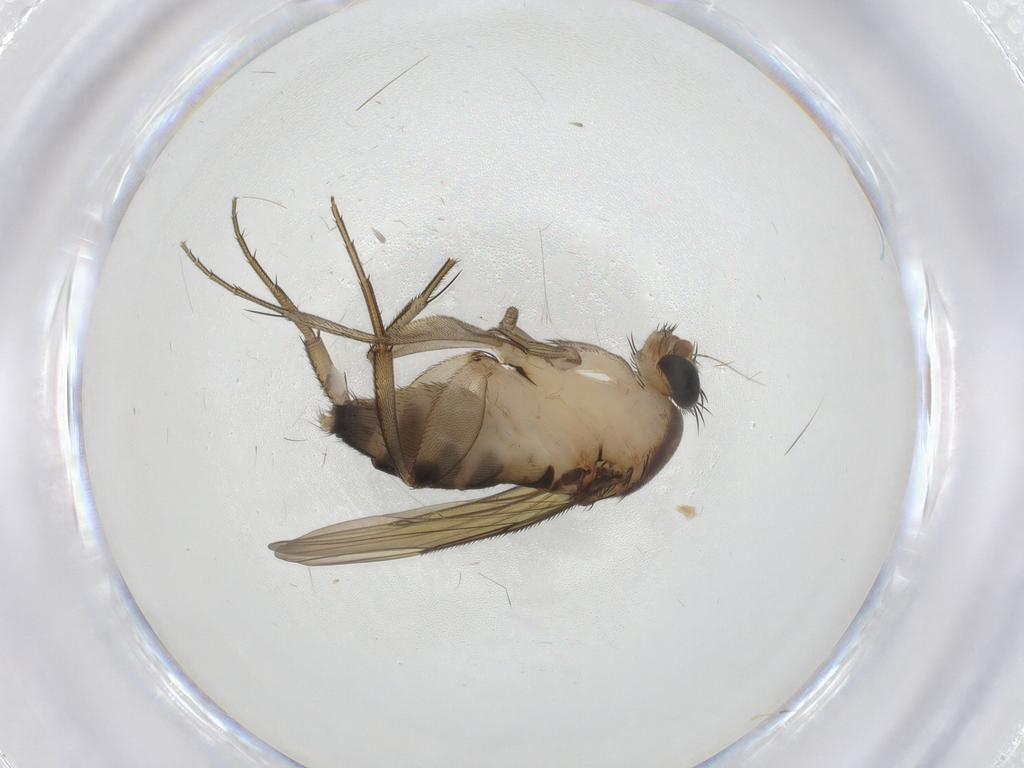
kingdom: Animalia
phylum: Arthropoda
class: Insecta
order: Diptera
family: Phoridae
